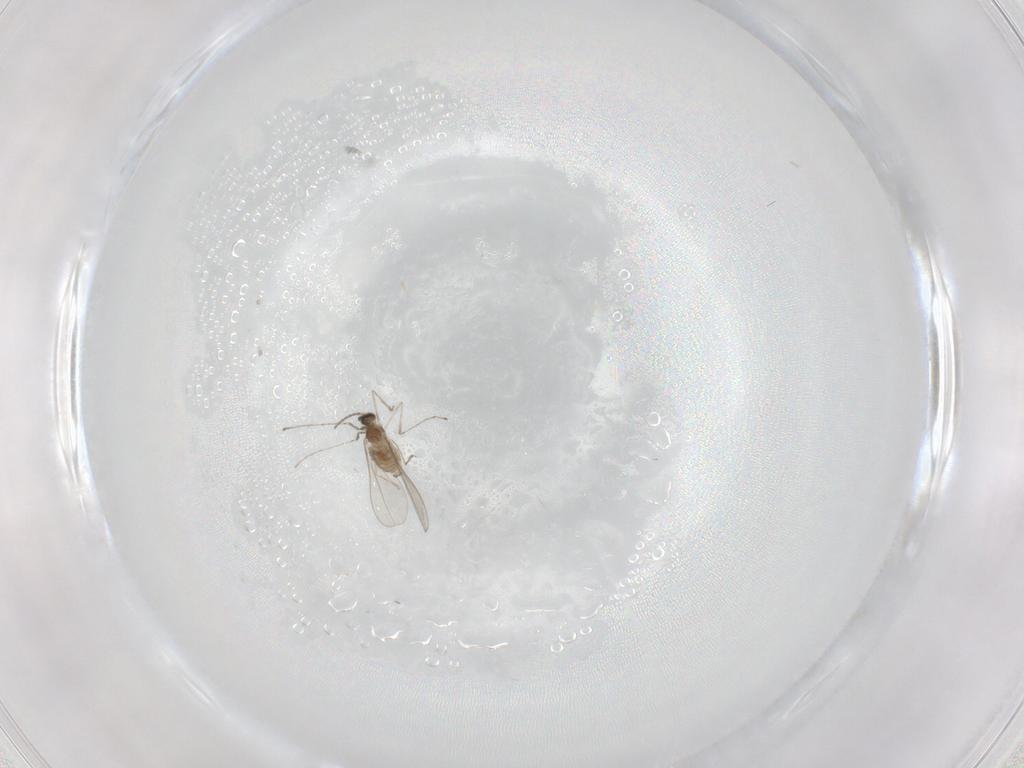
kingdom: Animalia
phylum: Arthropoda
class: Insecta
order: Diptera
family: Cecidomyiidae
